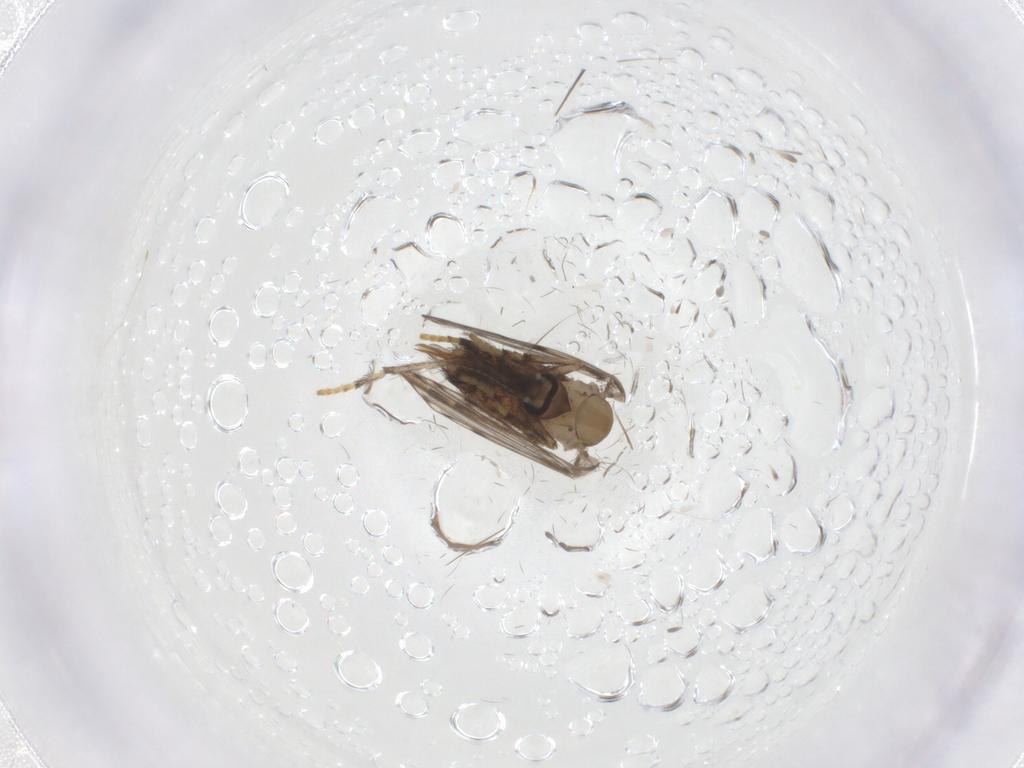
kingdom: Animalia
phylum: Arthropoda
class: Insecta
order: Diptera
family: Psychodidae
